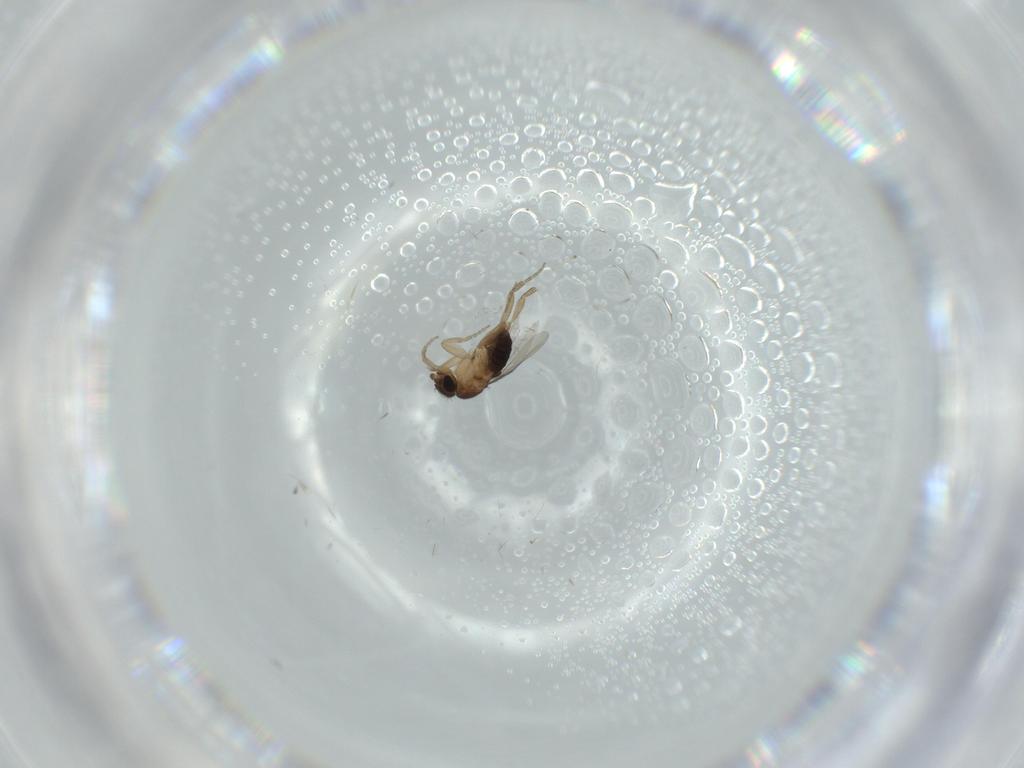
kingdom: Animalia
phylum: Arthropoda
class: Insecta
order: Diptera
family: Phoridae
